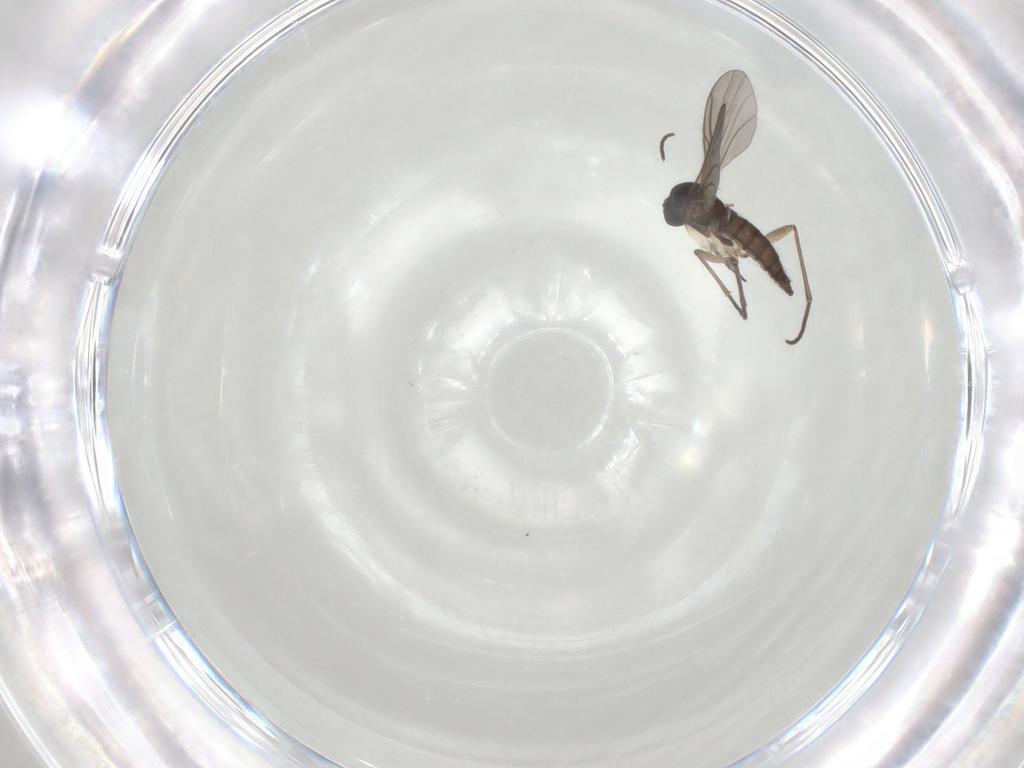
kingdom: Animalia
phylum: Arthropoda
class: Insecta
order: Diptera
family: Sciaridae
